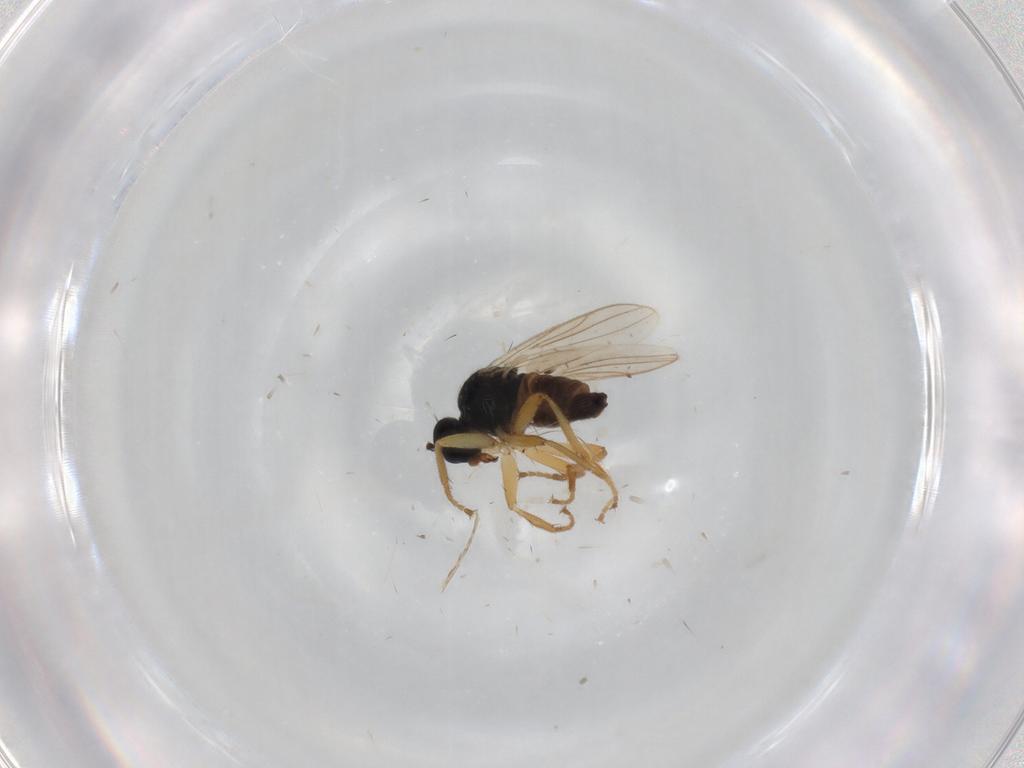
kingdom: Animalia
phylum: Arthropoda
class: Insecta
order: Diptera
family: Hybotidae
